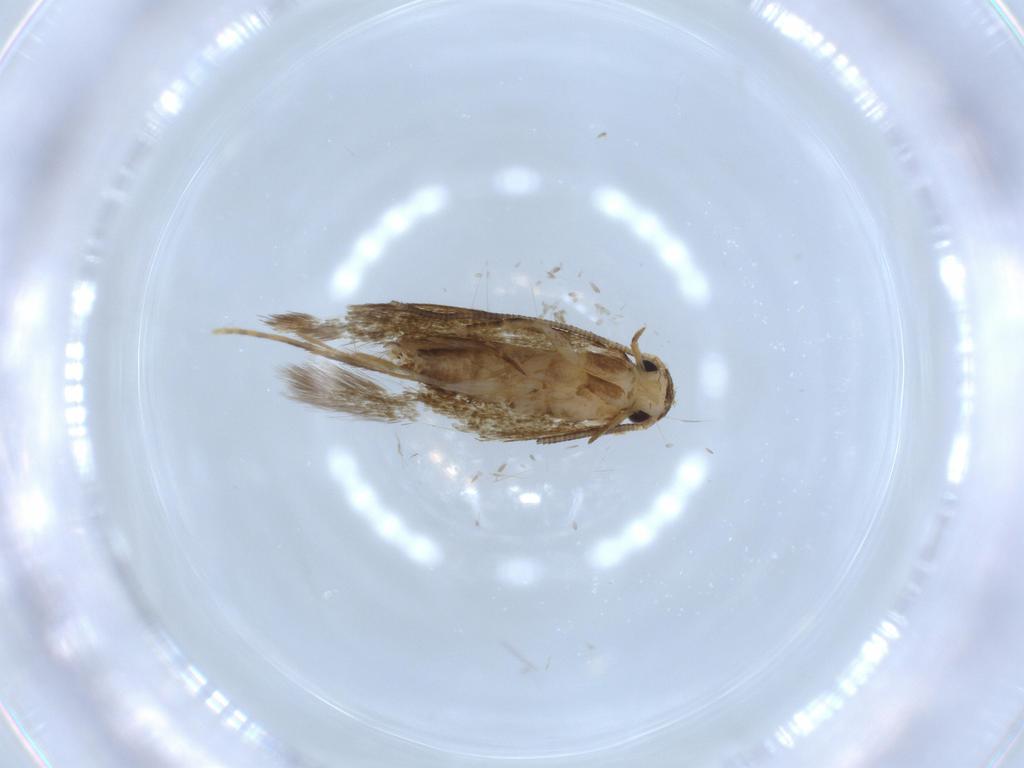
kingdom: Animalia
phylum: Arthropoda
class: Insecta
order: Lepidoptera
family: Tineidae
